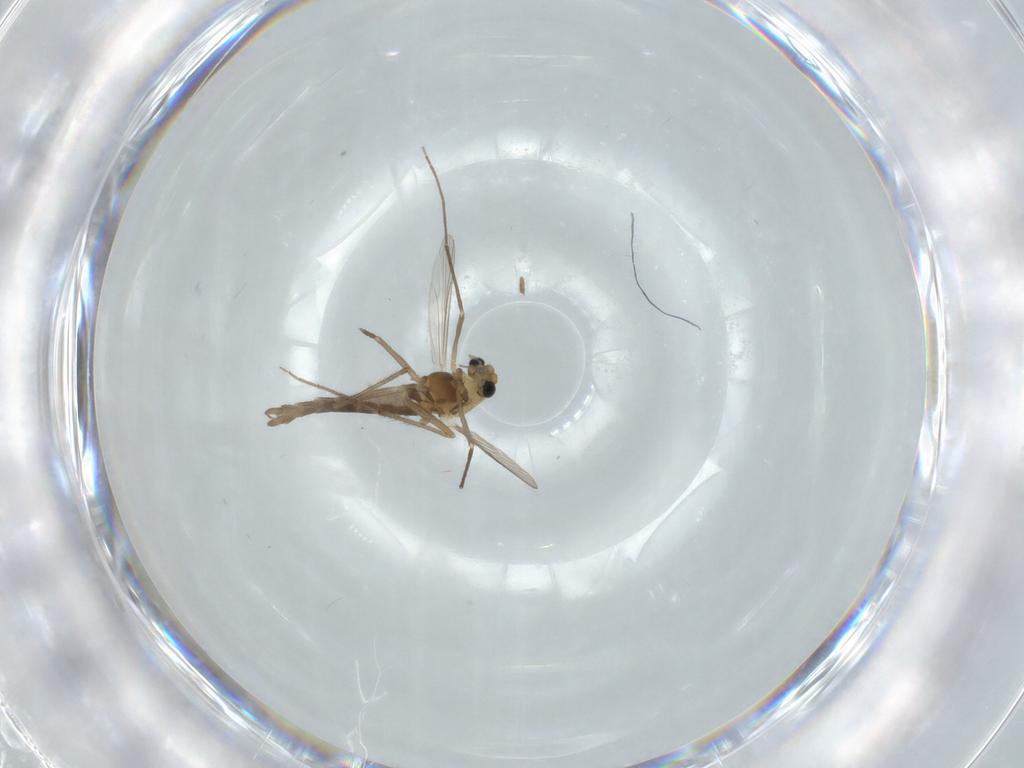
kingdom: Animalia
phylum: Arthropoda
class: Insecta
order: Diptera
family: Chironomidae
